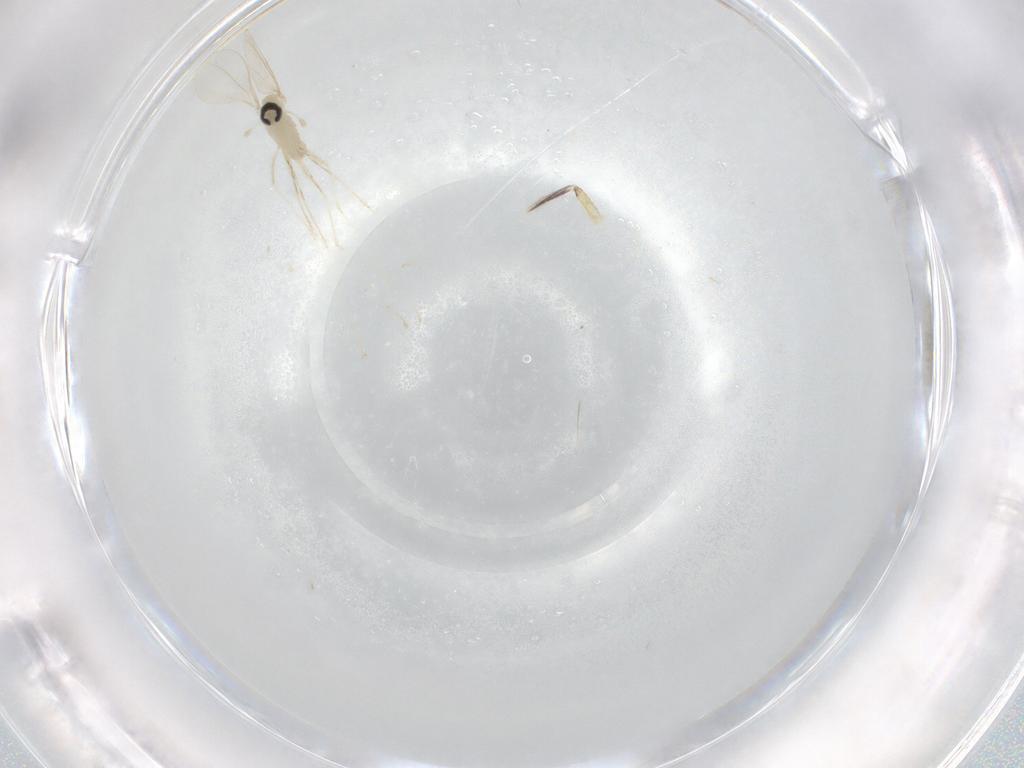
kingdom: Animalia
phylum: Arthropoda
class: Insecta
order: Diptera
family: Cecidomyiidae
